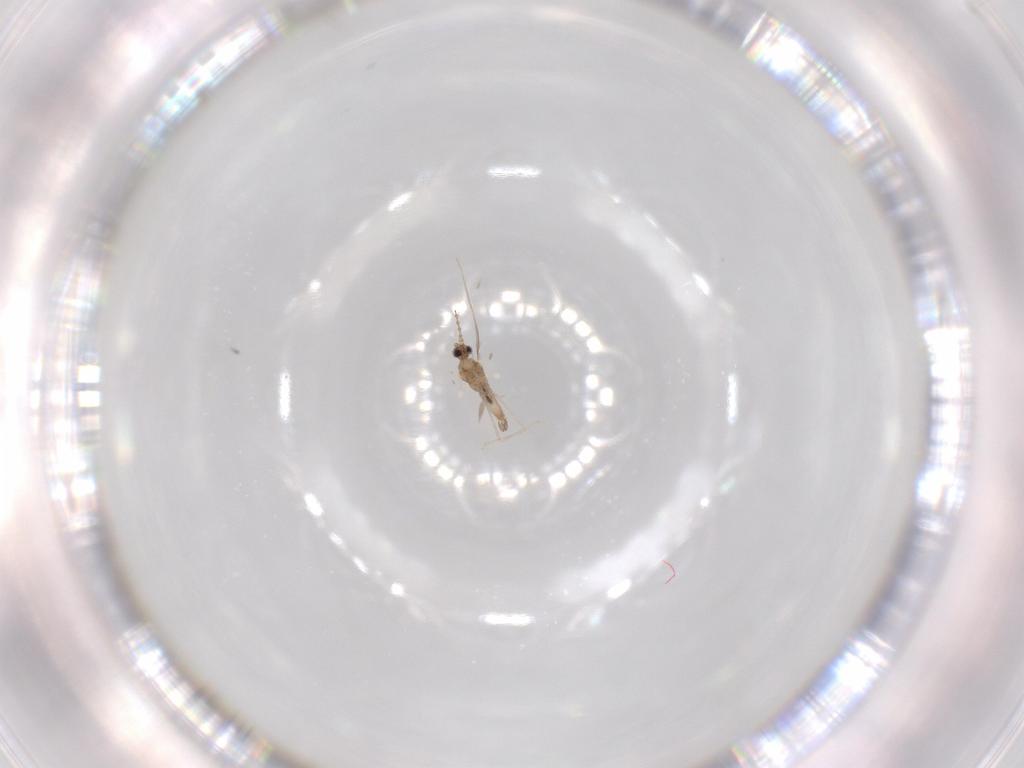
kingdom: Animalia
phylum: Arthropoda
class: Insecta
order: Diptera
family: Cecidomyiidae
